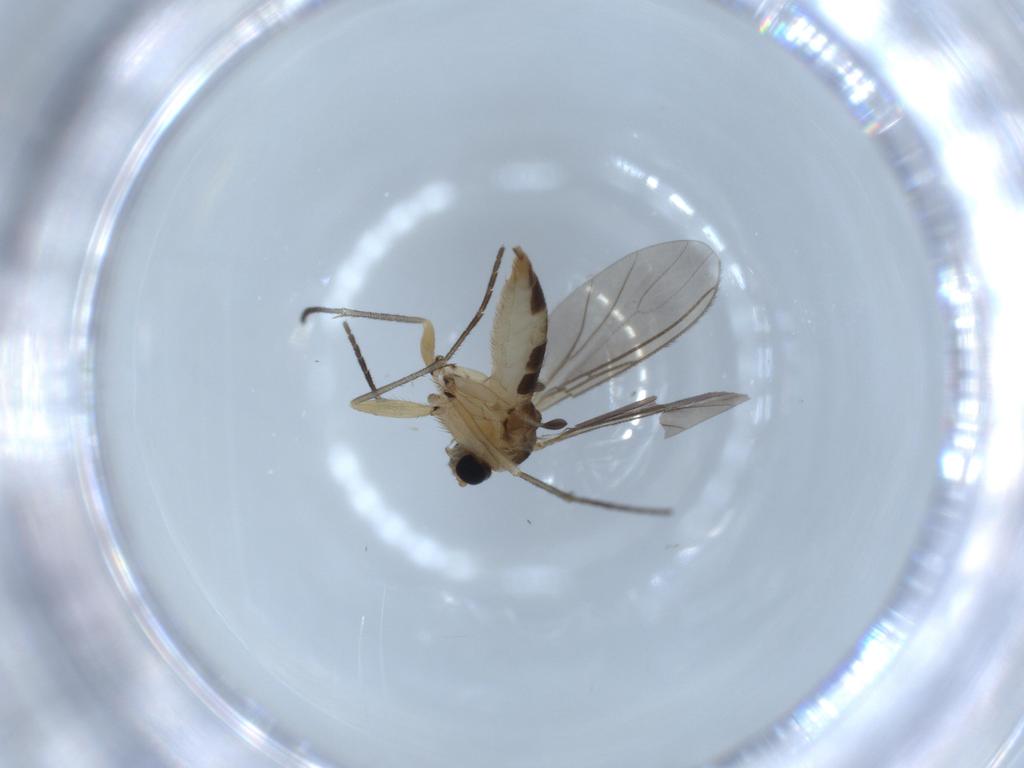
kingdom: Animalia
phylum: Arthropoda
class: Insecta
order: Diptera
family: Sciaridae
